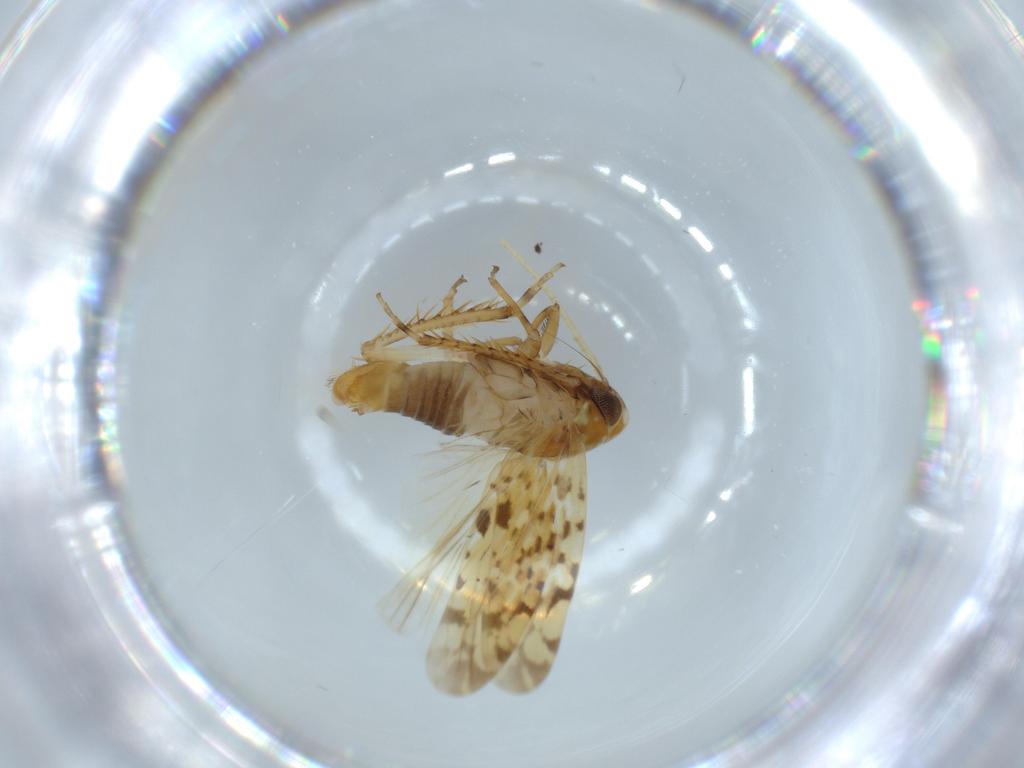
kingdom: Animalia
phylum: Arthropoda
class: Insecta
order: Hemiptera
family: Cicadellidae
